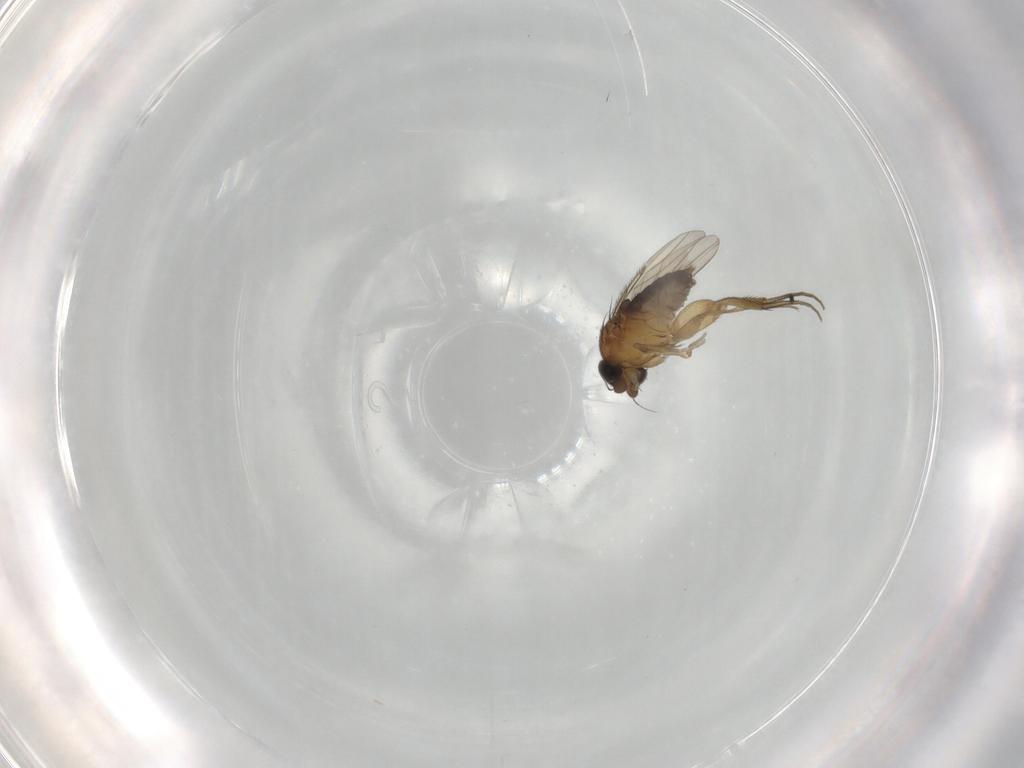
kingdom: Animalia
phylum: Arthropoda
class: Insecta
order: Diptera
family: Phoridae
